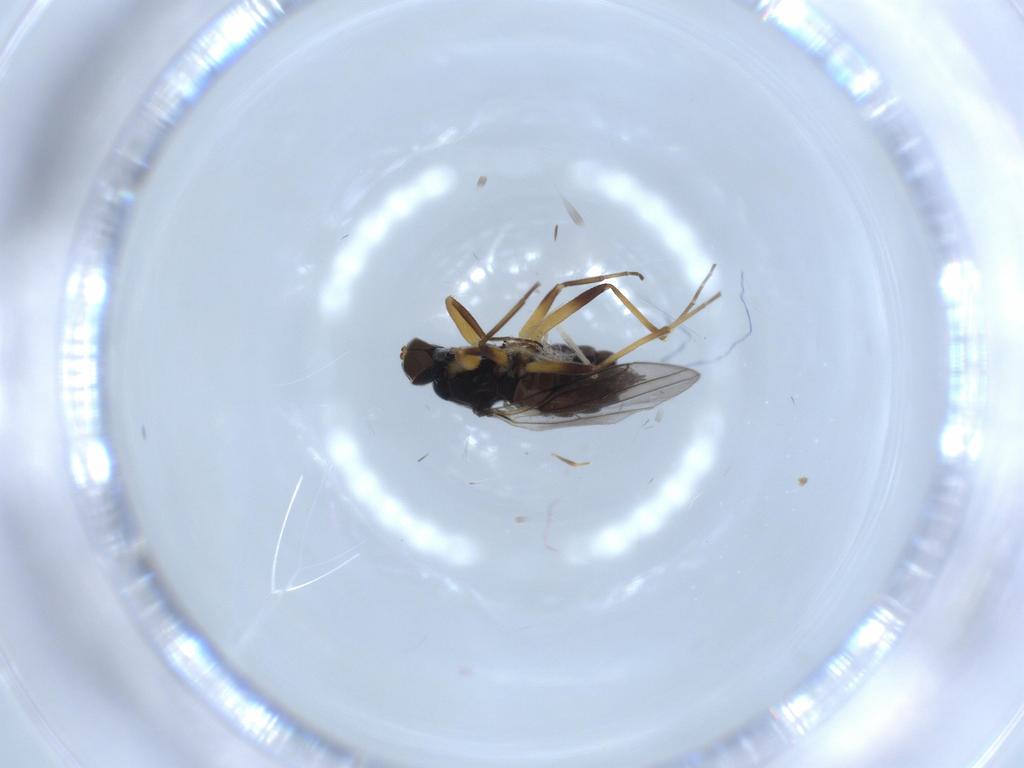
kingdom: Animalia
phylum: Arthropoda
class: Insecta
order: Diptera
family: Hybotidae
